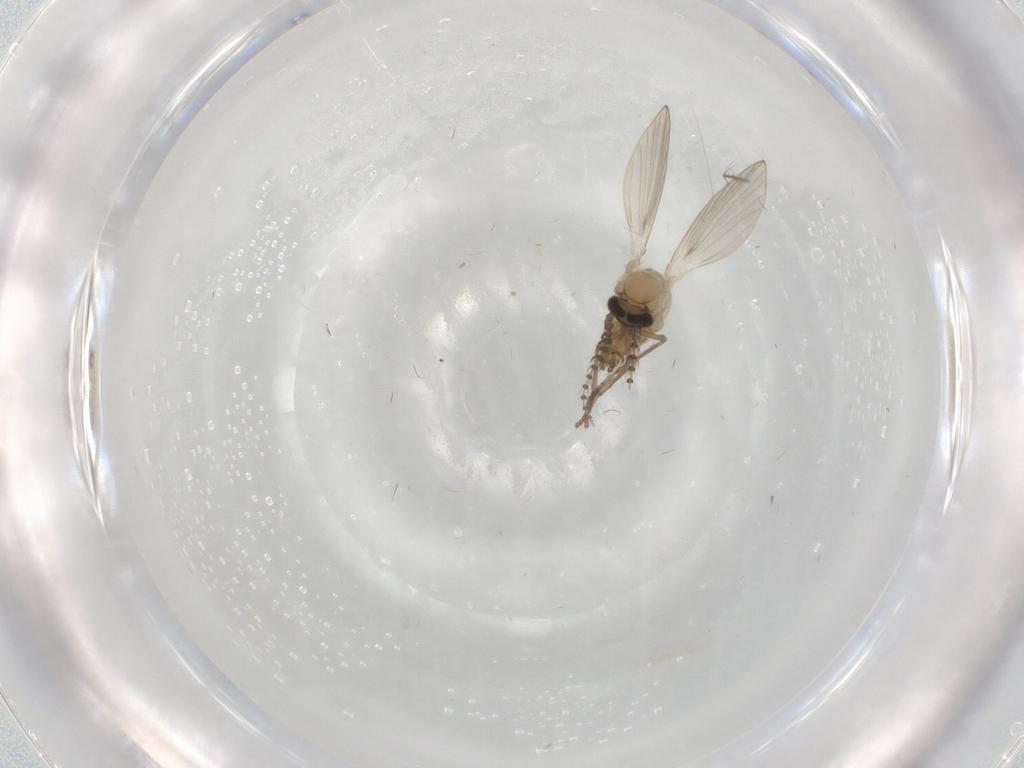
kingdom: Animalia
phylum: Arthropoda
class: Insecta
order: Diptera
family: Psychodidae
